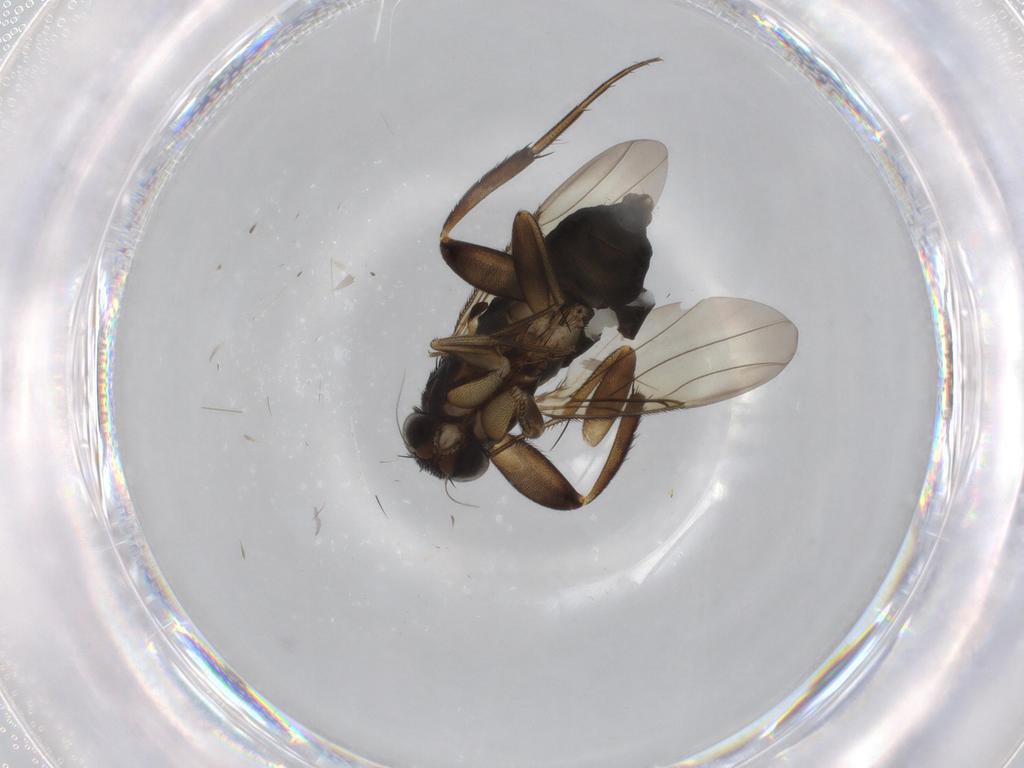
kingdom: Animalia
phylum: Arthropoda
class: Insecta
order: Diptera
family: Phoridae
